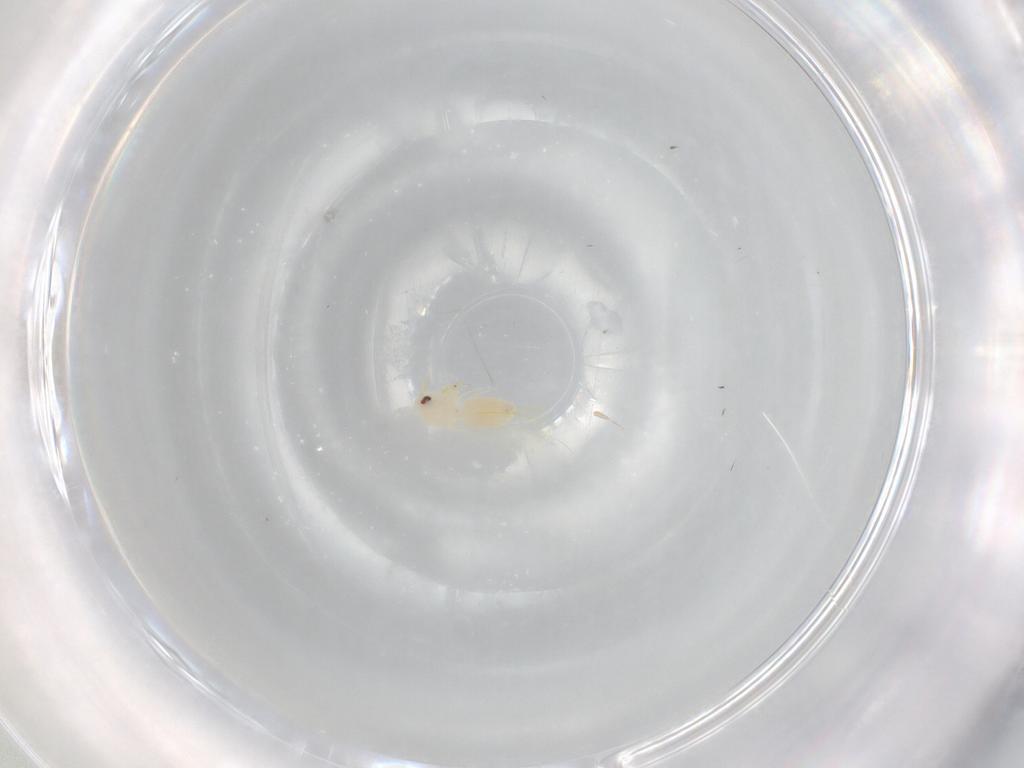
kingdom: Animalia
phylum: Arthropoda
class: Insecta
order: Hemiptera
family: Aleyrodidae
